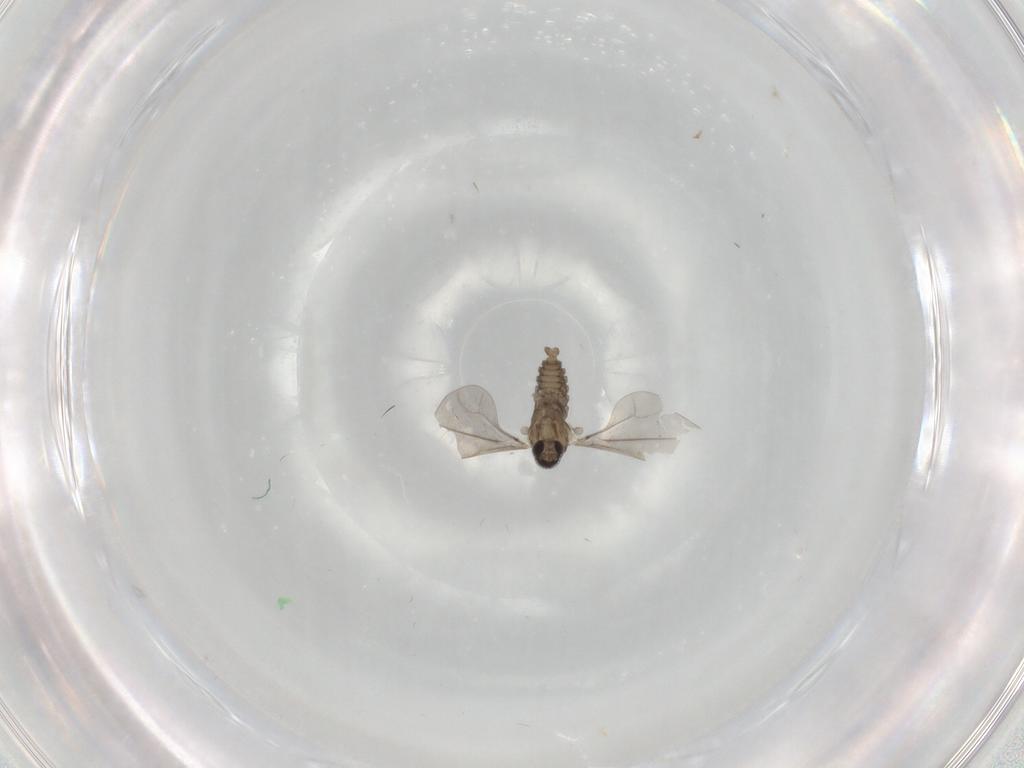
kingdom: Animalia
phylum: Arthropoda
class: Insecta
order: Diptera
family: Cecidomyiidae
